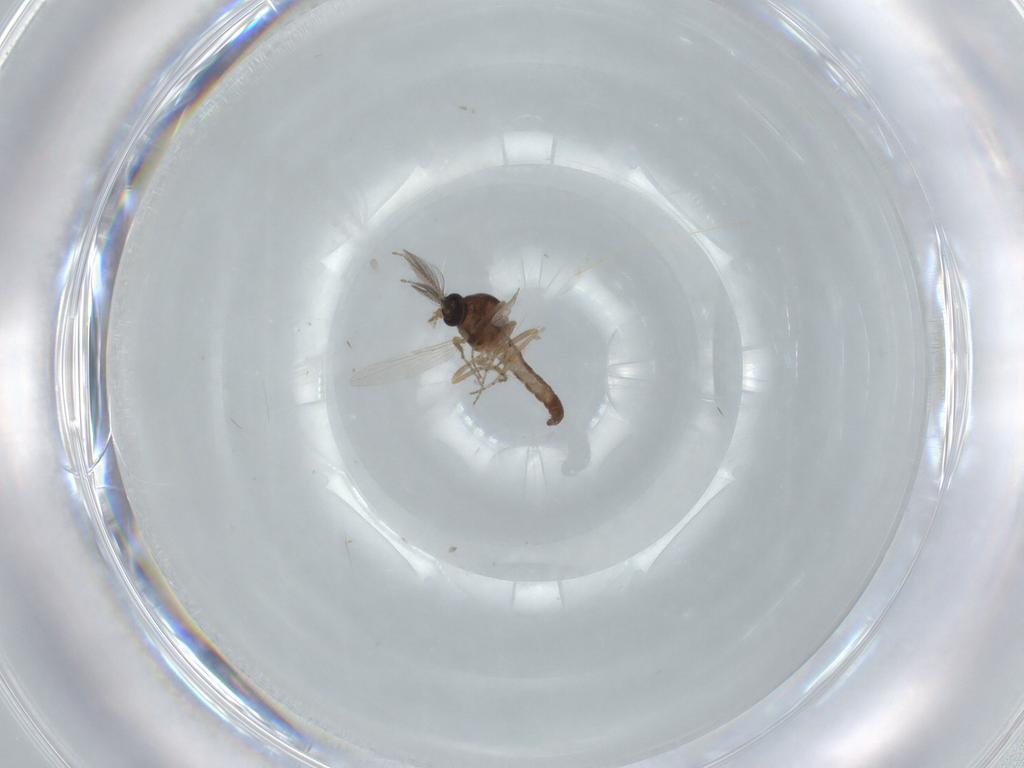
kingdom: Animalia
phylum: Arthropoda
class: Insecta
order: Diptera
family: Ceratopogonidae
